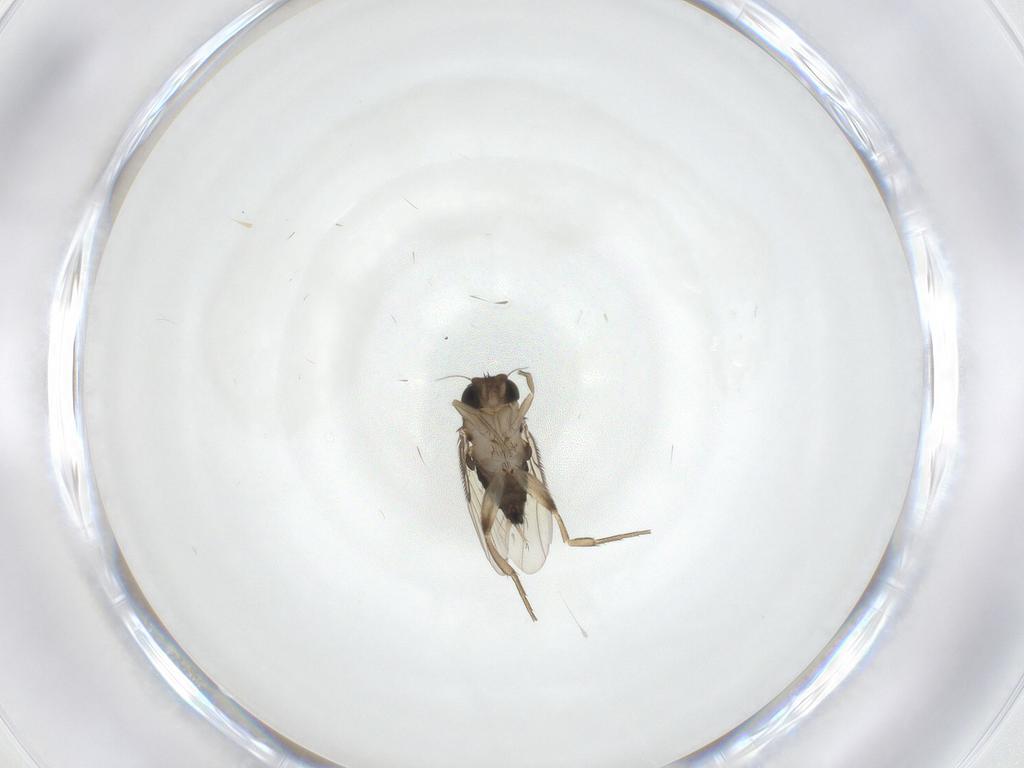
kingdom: Animalia
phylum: Arthropoda
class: Insecta
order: Diptera
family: Phoridae
